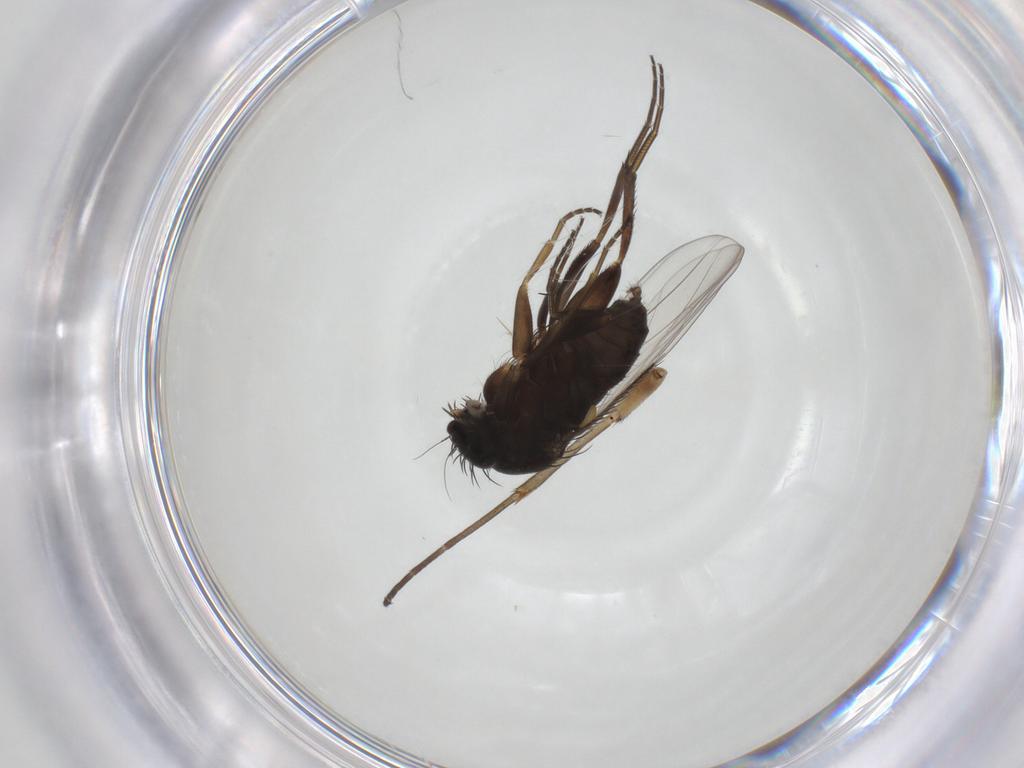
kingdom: Animalia
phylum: Arthropoda
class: Insecta
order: Diptera
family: Phoridae
